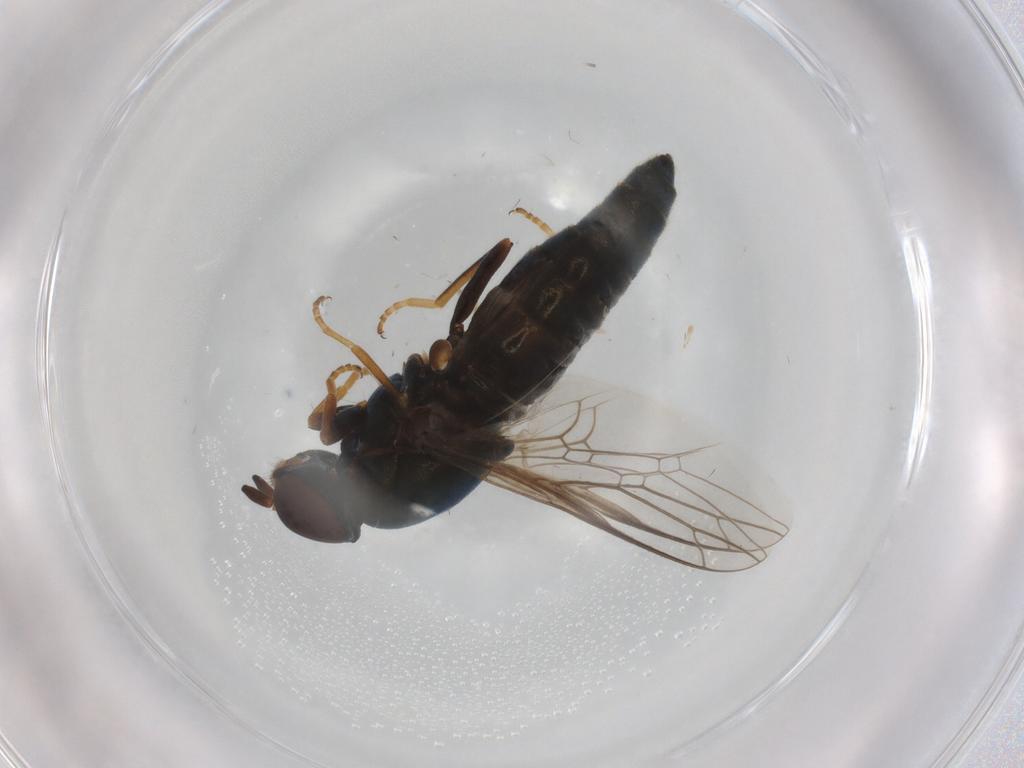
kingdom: Animalia
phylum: Arthropoda
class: Insecta
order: Diptera
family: Scenopinidae
